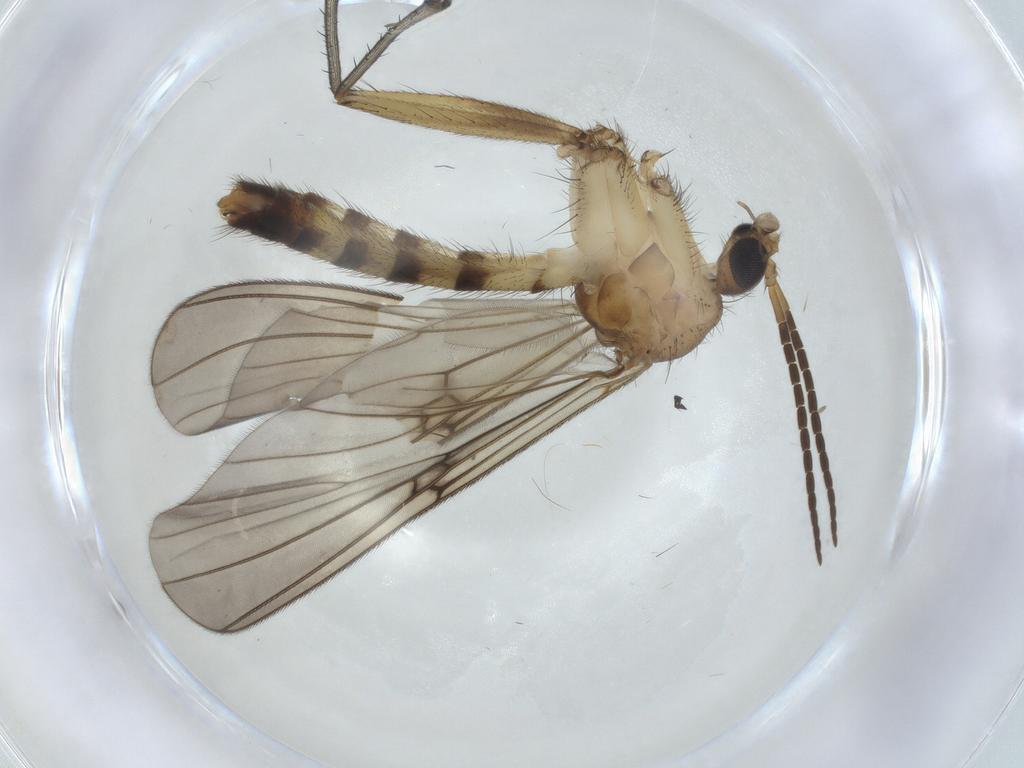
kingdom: Animalia
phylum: Arthropoda
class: Insecta
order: Diptera
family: Mycetophilidae
